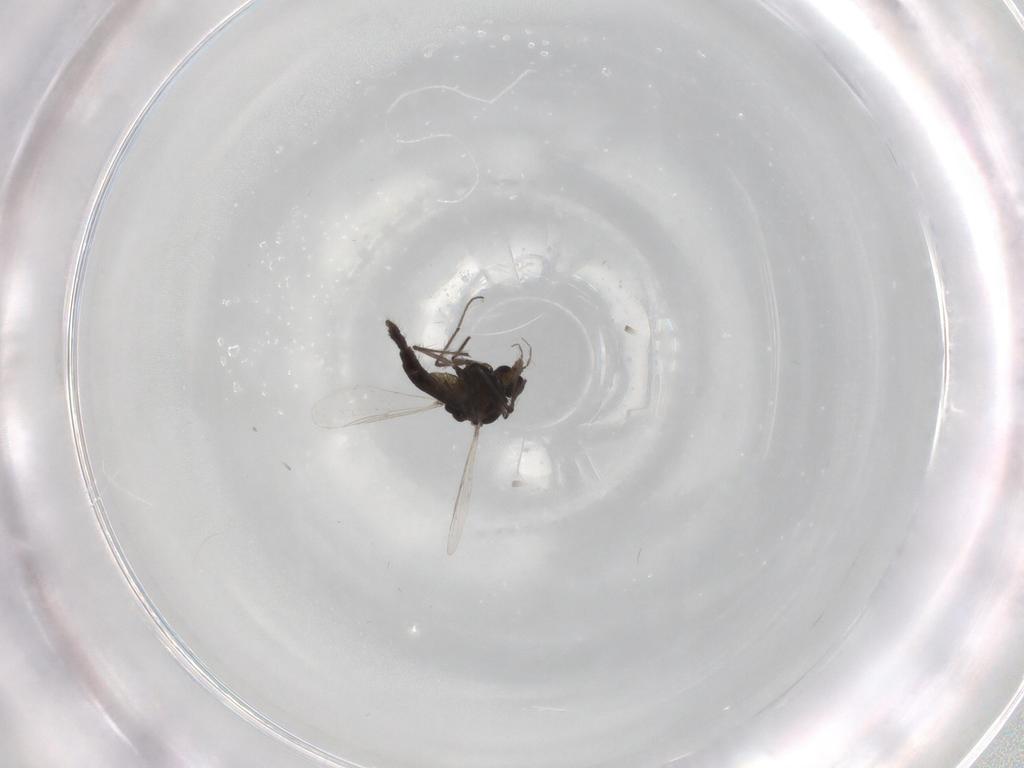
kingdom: Animalia
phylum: Arthropoda
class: Insecta
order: Diptera
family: Chironomidae
